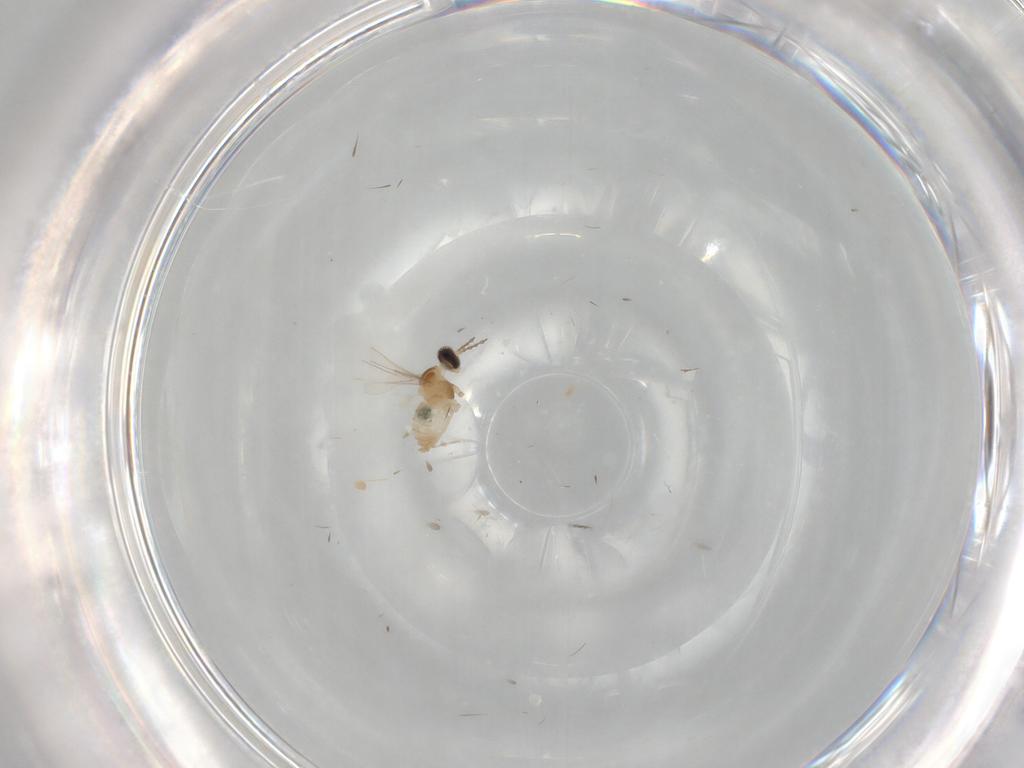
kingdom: Animalia
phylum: Arthropoda
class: Insecta
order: Diptera
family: Cecidomyiidae
